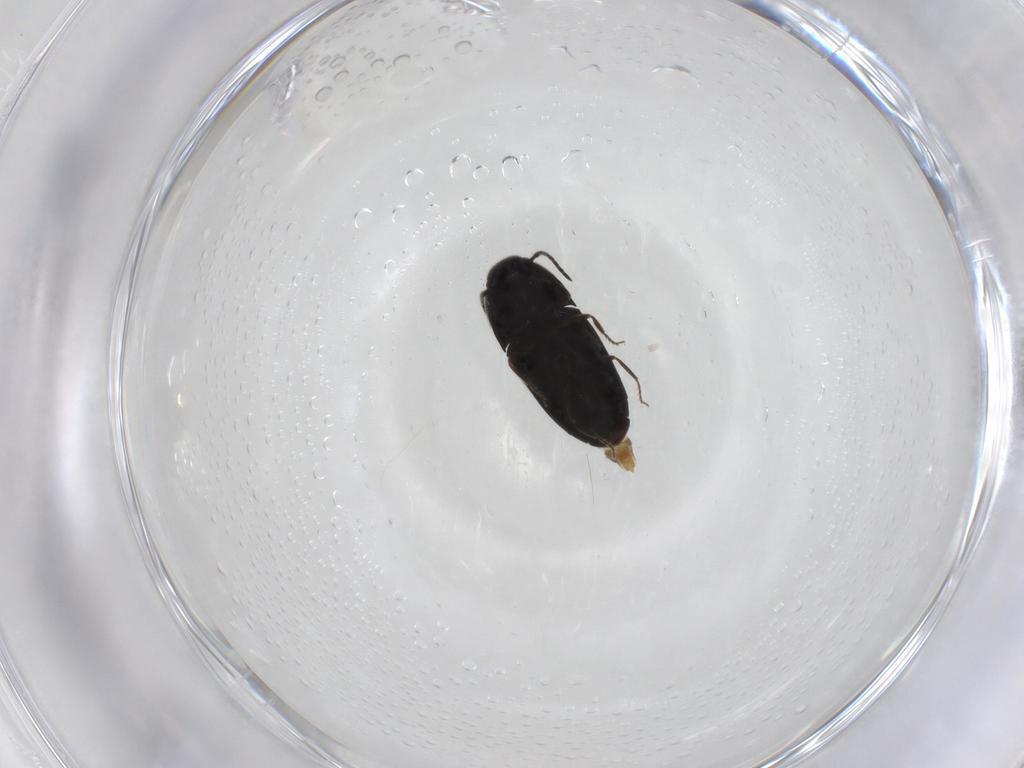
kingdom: Animalia
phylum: Arthropoda
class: Insecta
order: Coleoptera
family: Elateridae
